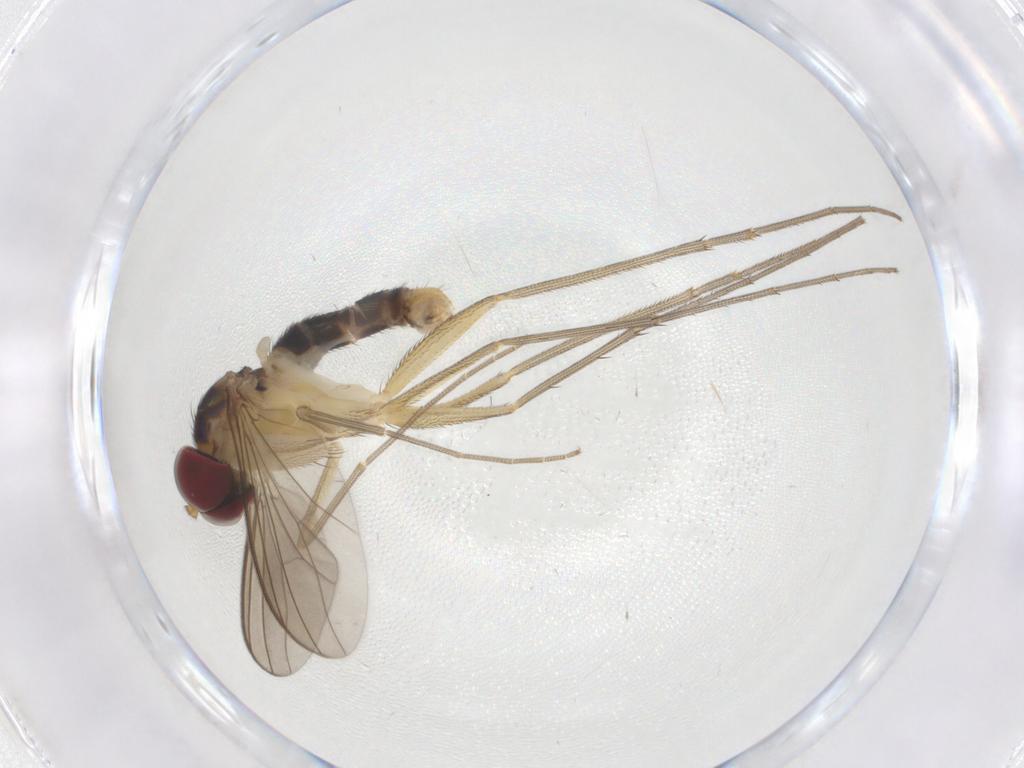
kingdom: Animalia
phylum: Arthropoda
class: Insecta
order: Diptera
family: Dolichopodidae
